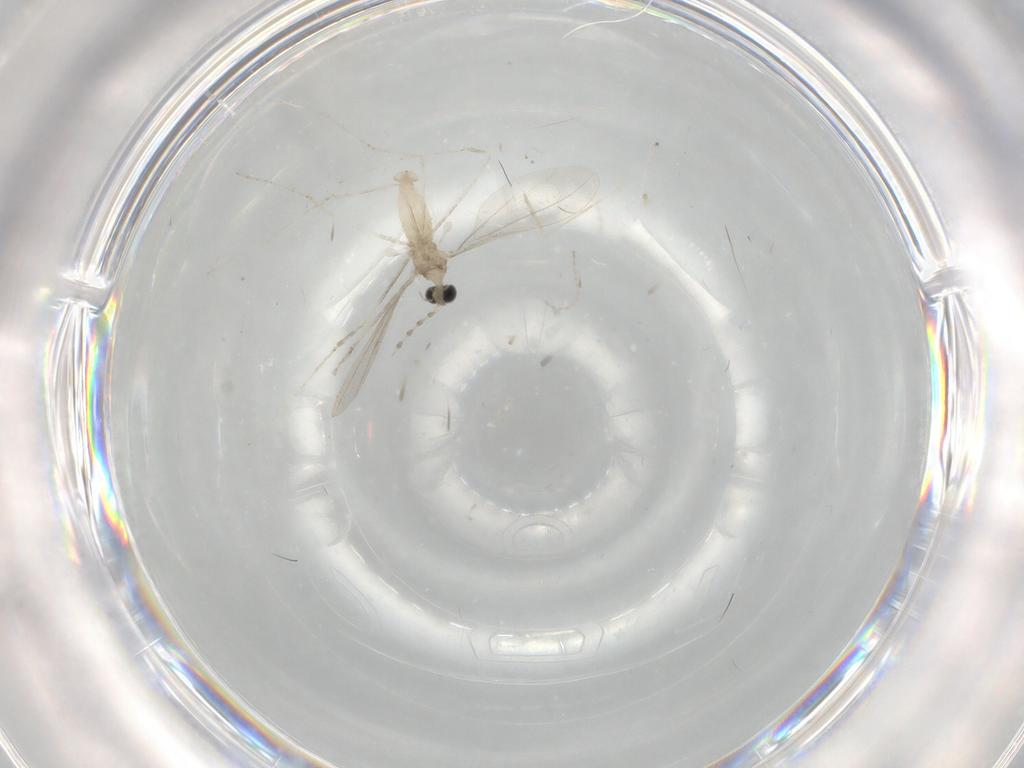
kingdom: Animalia
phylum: Arthropoda
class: Insecta
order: Diptera
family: Cecidomyiidae
